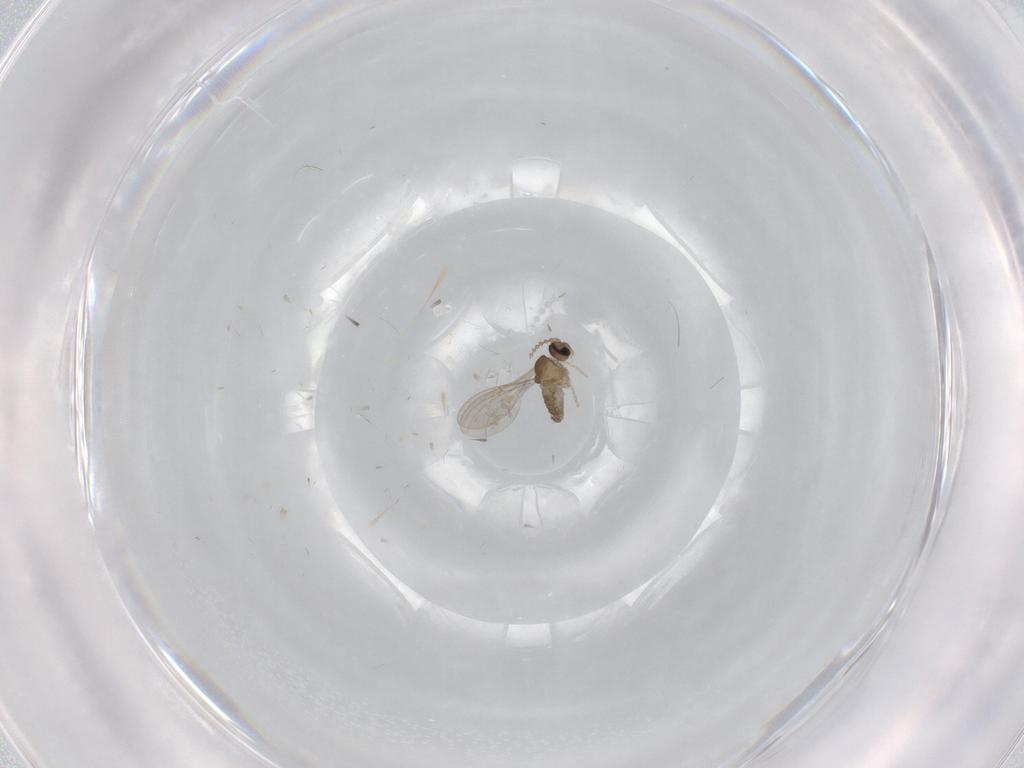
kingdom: Animalia
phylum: Arthropoda
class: Insecta
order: Diptera
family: Cecidomyiidae
